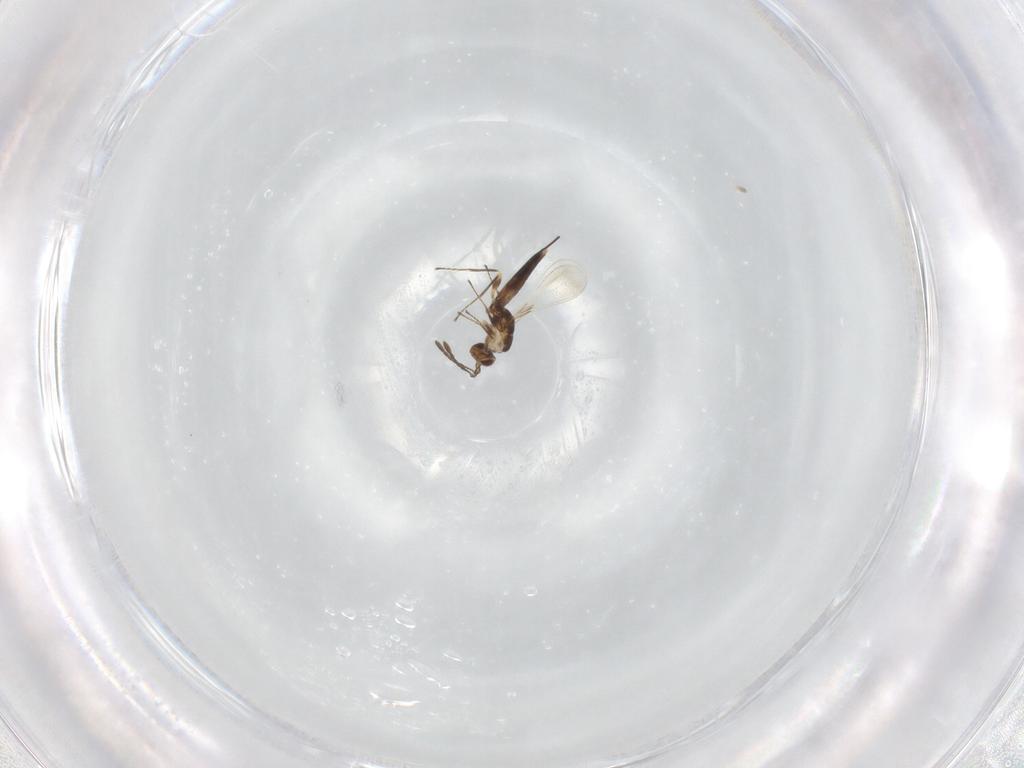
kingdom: Animalia
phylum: Arthropoda
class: Insecta
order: Hymenoptera
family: Mymaridae
